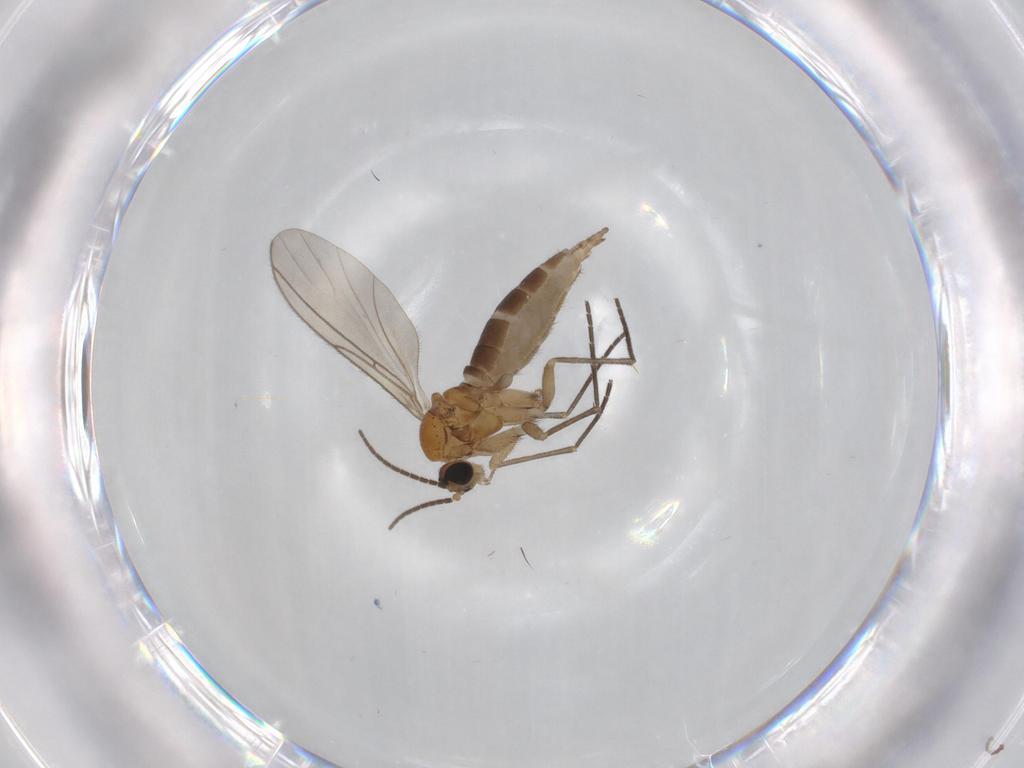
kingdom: Animalia
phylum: Arthropoda
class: Insecta
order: Diptera
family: Sciaridae
